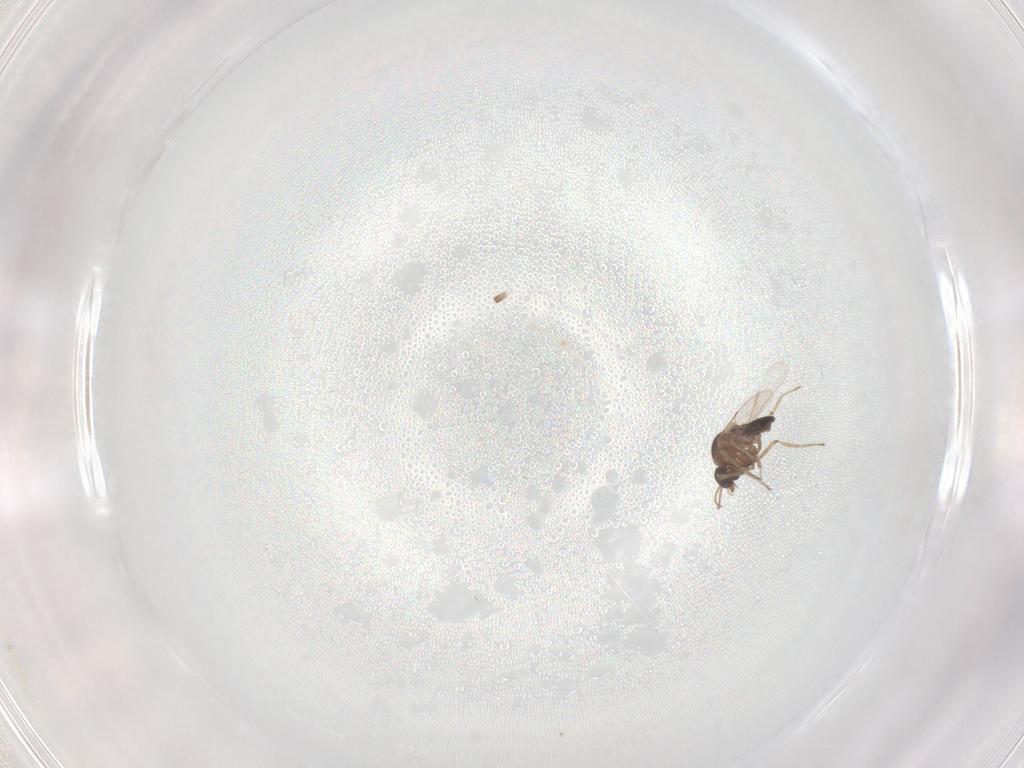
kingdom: Animalia
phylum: Arthropoda
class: Insecta
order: Diptera
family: Ceratopogonidae
